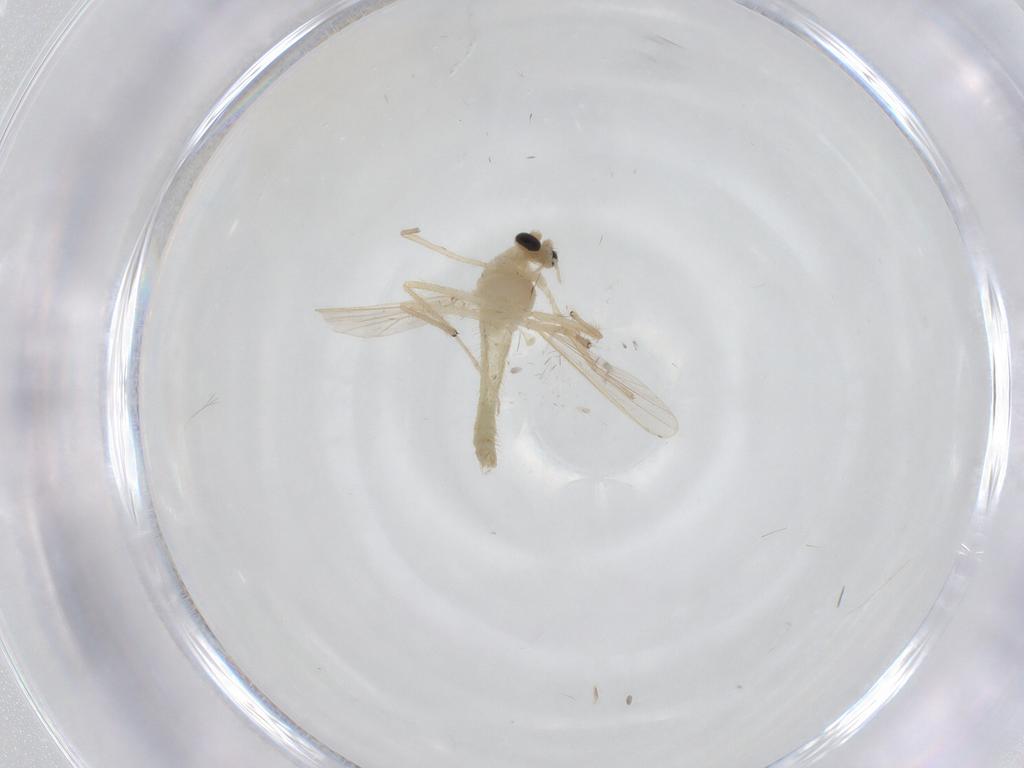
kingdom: Animalia
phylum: Arthropoda
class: Insecta
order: Diptera
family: Chironomidae
